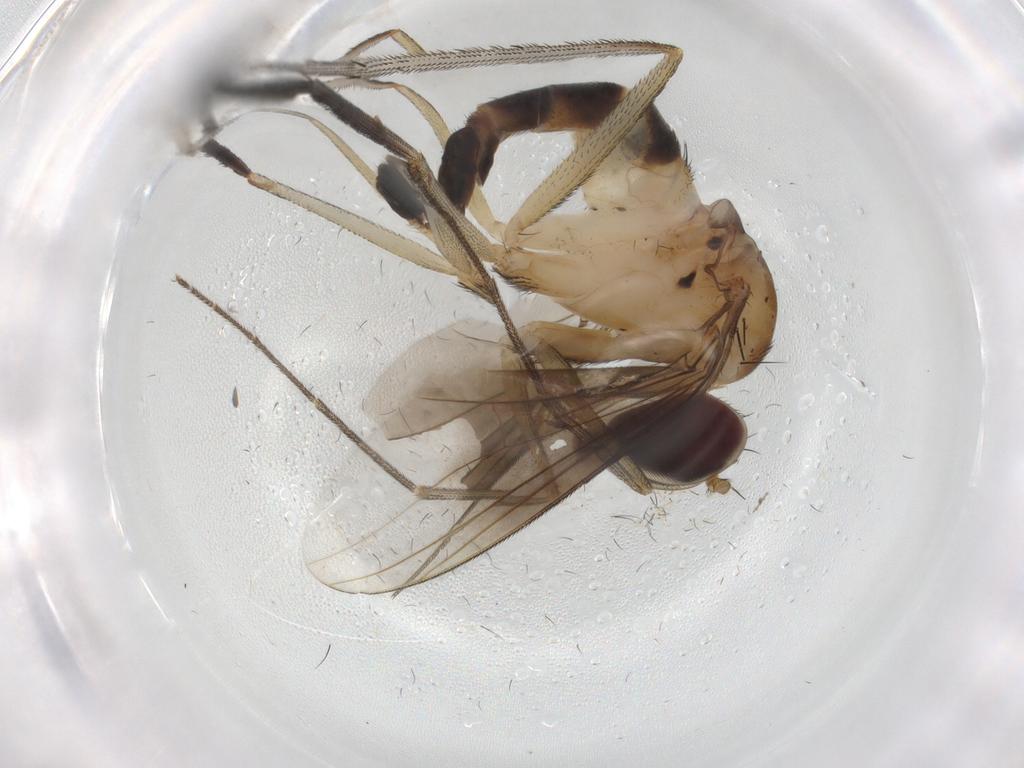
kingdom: Animalia
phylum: Arthropoda
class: Insecta
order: Diptera
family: Dolichopodidae
